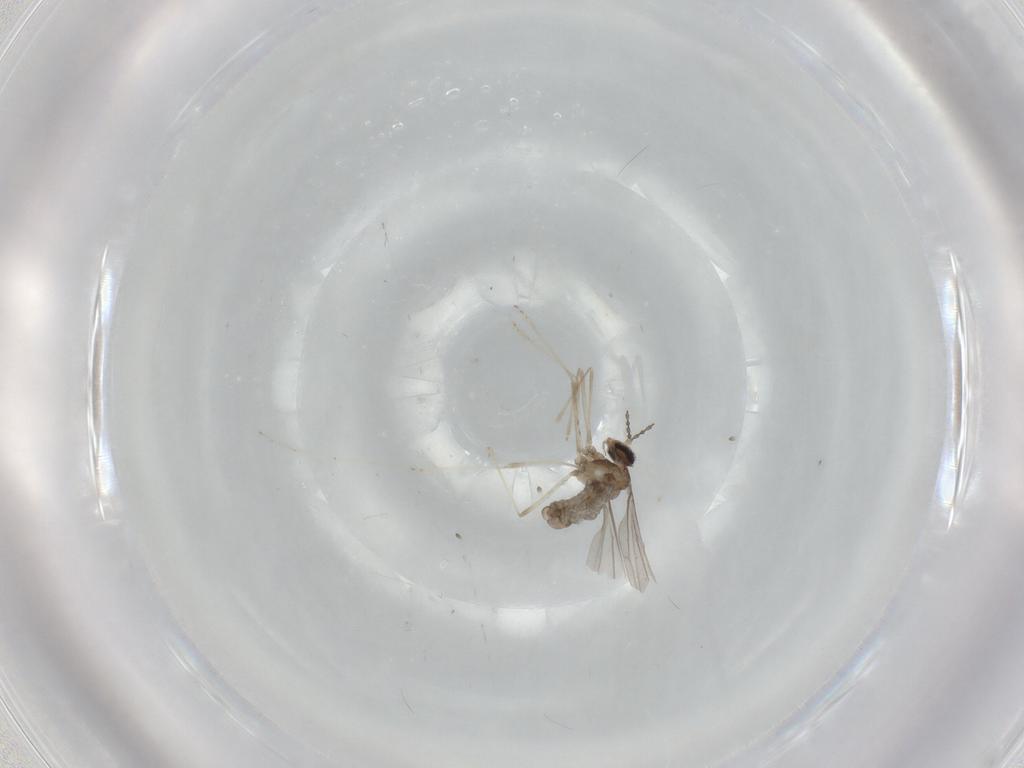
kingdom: Animalia
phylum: Arthropoda
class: Insecta
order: Diptera
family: Cecidomyiidae
